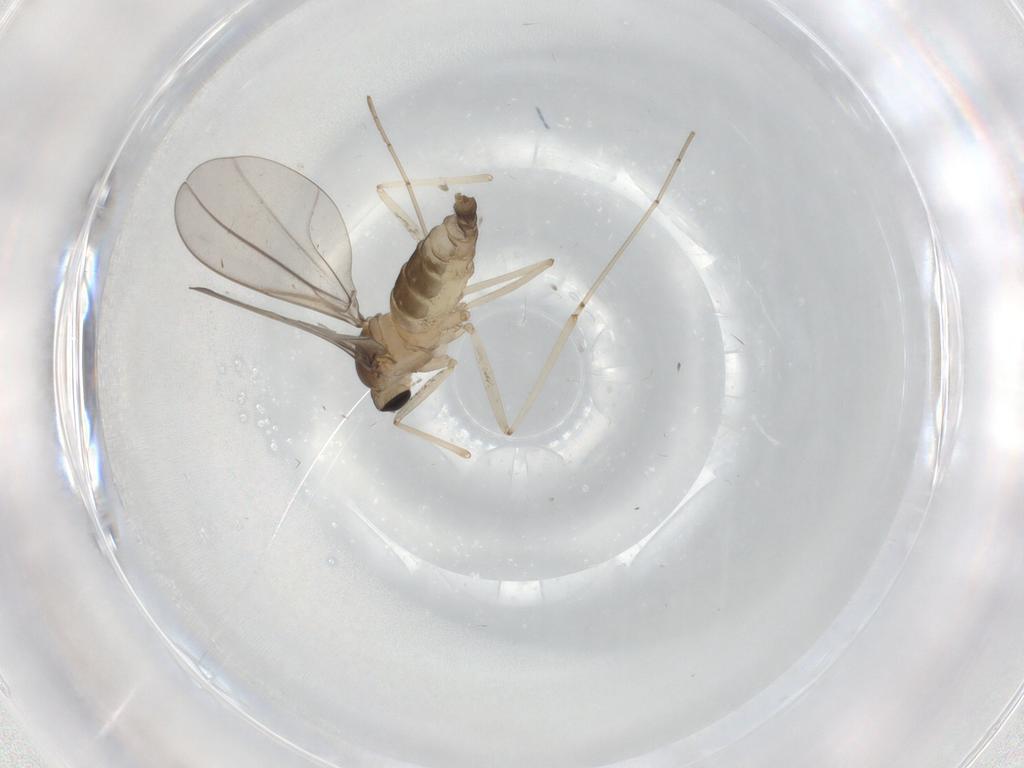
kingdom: Animalia
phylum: Arthropoda
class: Insecta
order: Diptera
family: Cecidomyiidae
